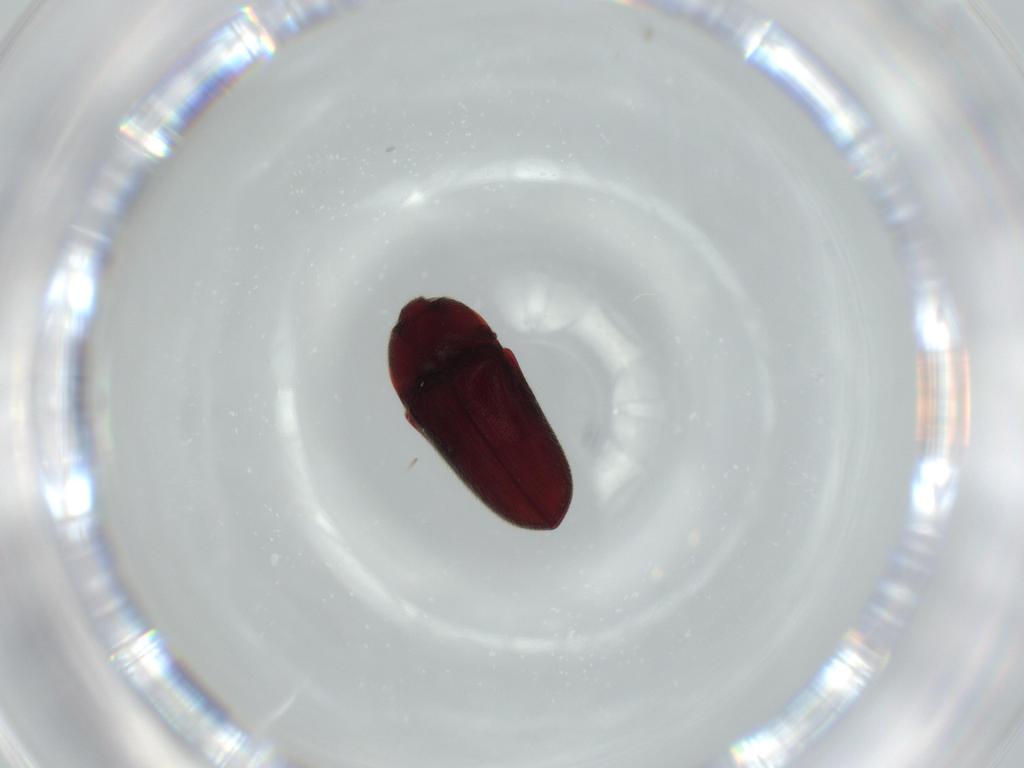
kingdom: Animalia
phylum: Arthropoda
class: Insecta
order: Coleoptera
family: Throscidae
